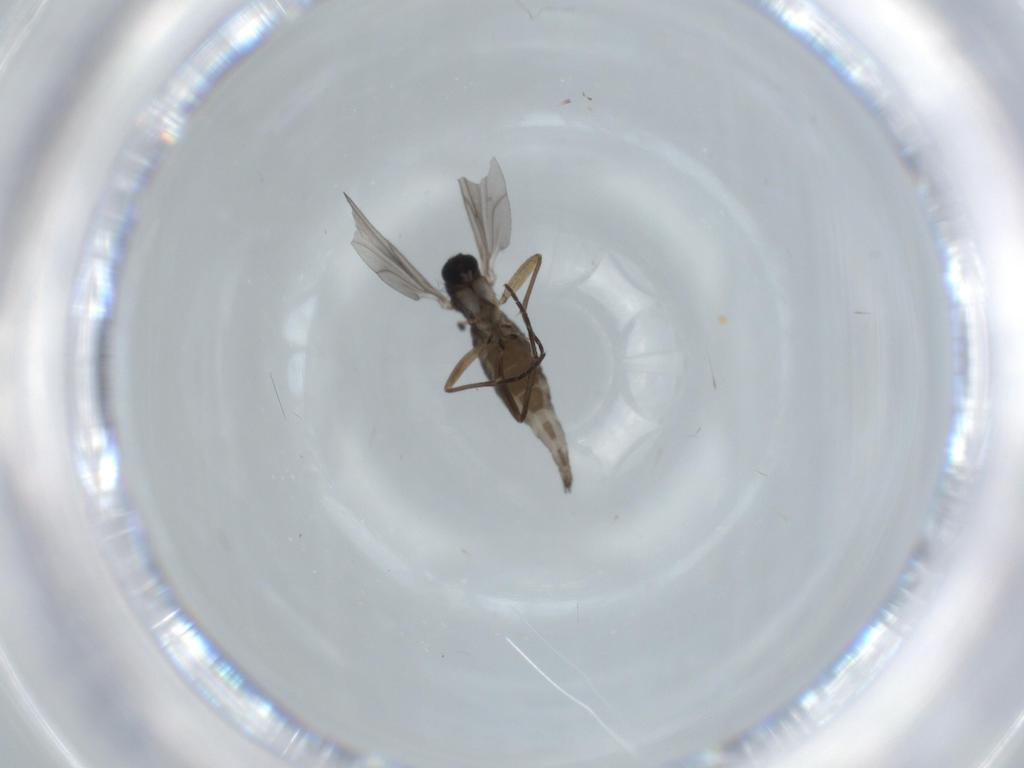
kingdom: Animalia
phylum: Arthropoda
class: Insecta
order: Diptera
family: Sciaridae
